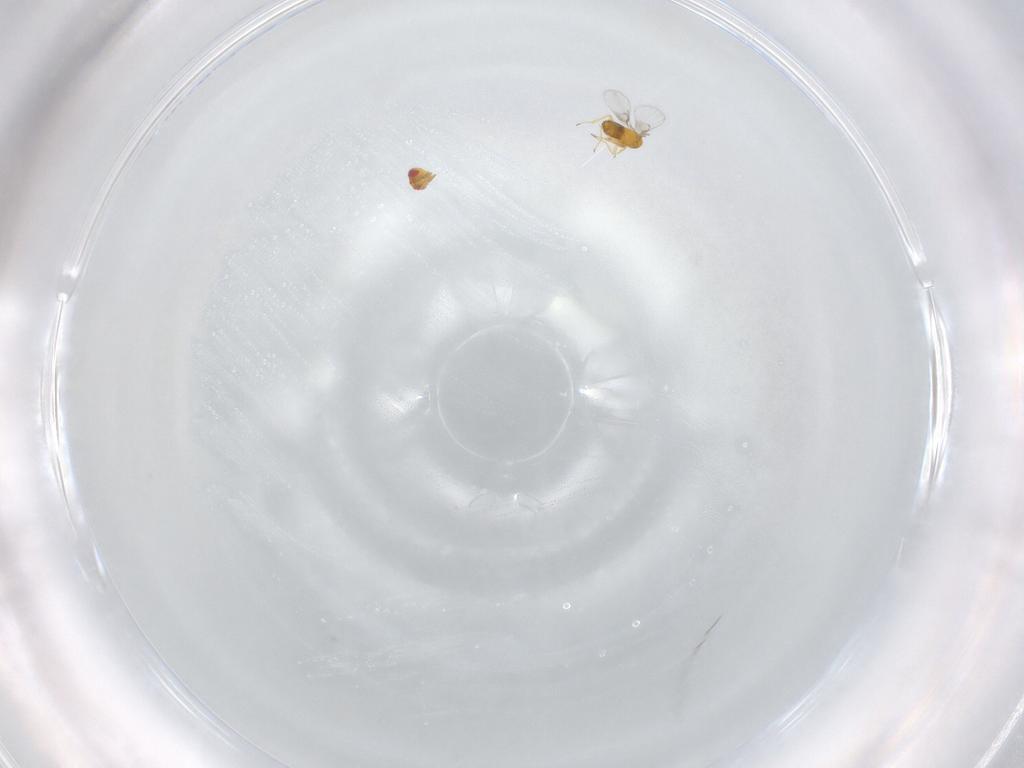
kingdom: Animalia
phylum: Arthropoda
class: Insecta
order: Hymenoptera
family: Trichogrammatidae
